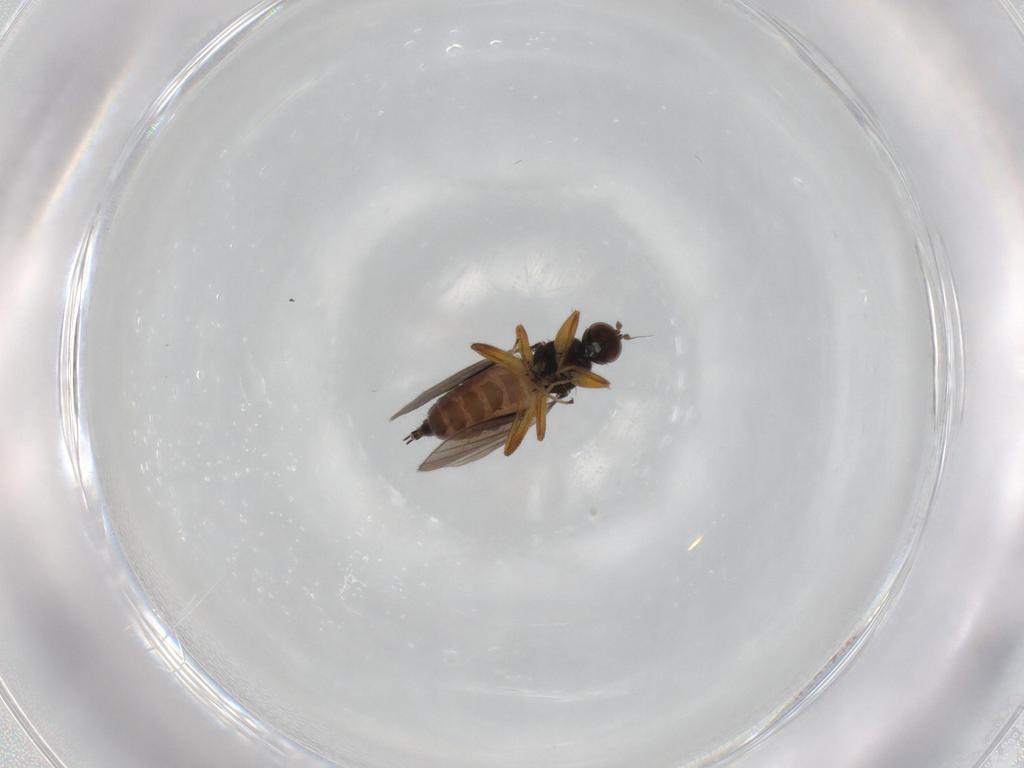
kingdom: Animalia
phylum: Arthropoda
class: Insecta
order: Diptera
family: Hybotidae
